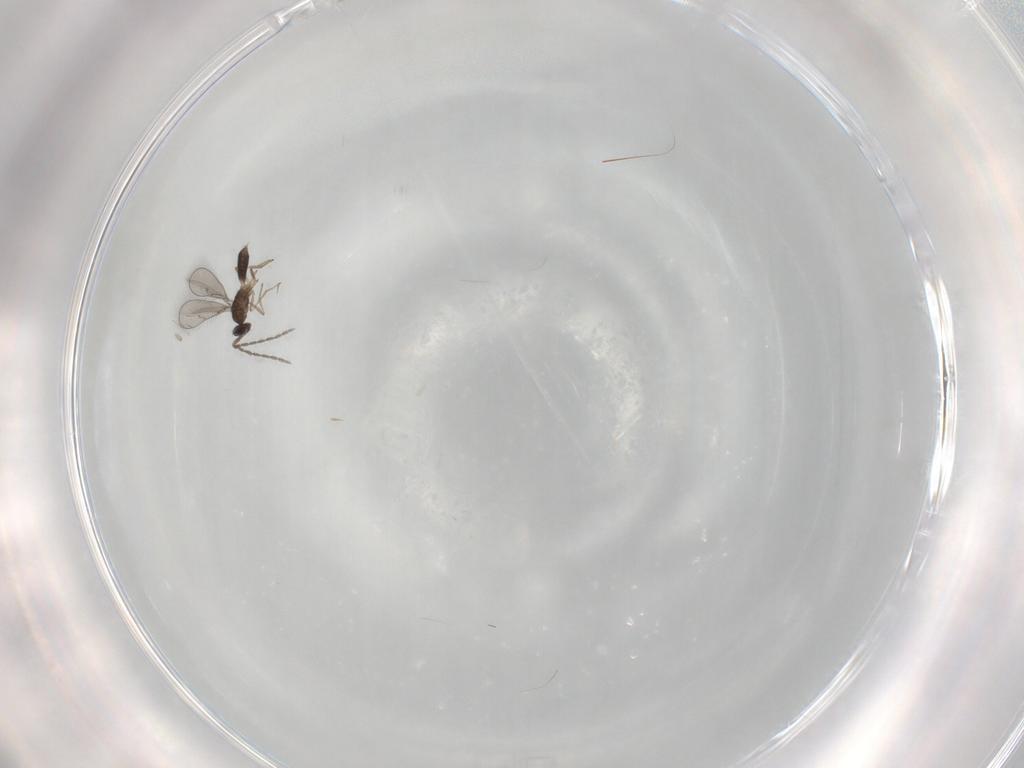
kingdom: Animalia
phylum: Arthropoda
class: Insecta
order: Hymenoptera
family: Eulophidae
